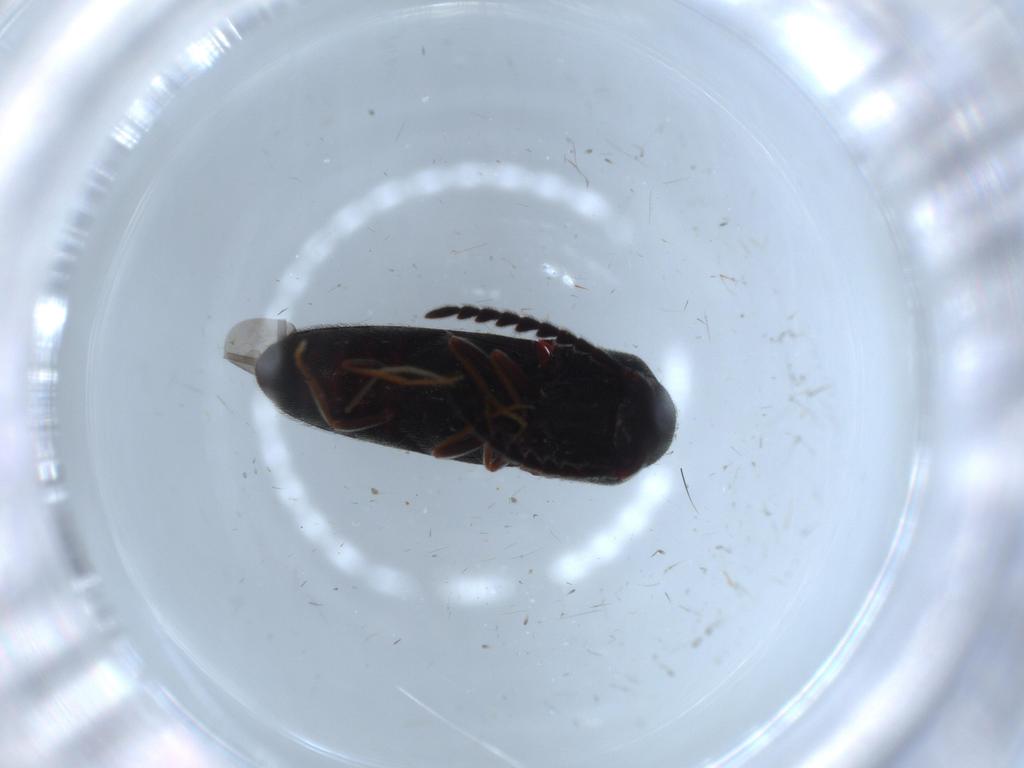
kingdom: Animalia
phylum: Arthropoda
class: Insecta
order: Coleoptera
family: Eucnemidae
